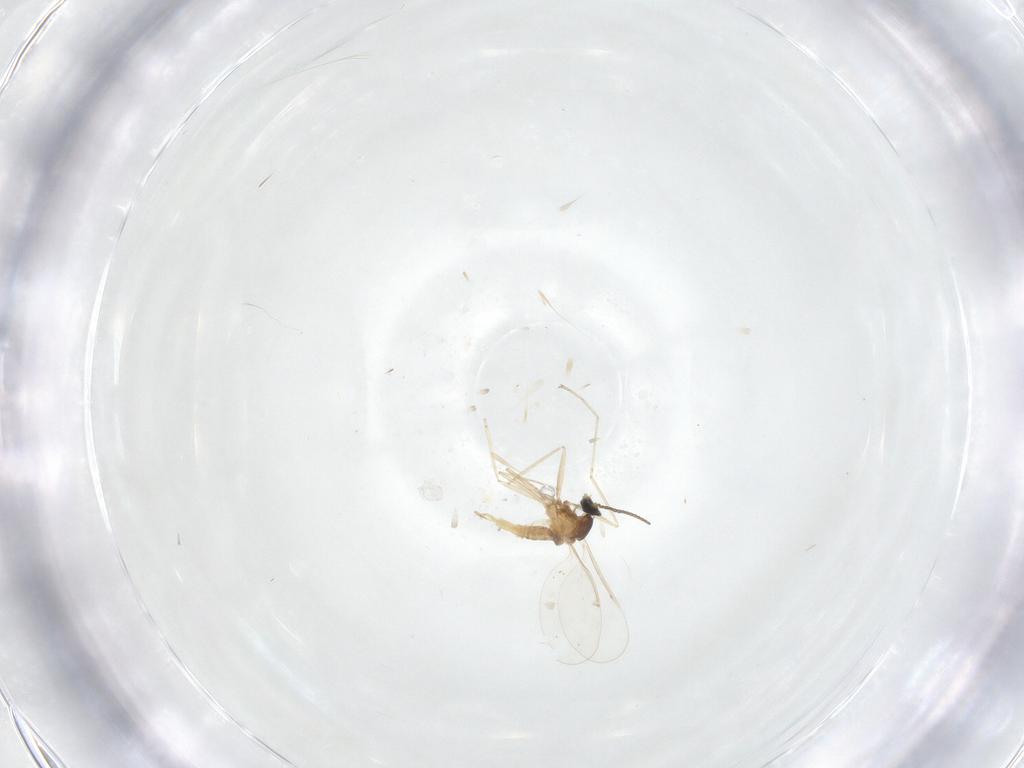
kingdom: Animalia
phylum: Arthropoda
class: Insecta
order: Diptera
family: Cecidomyiidae
